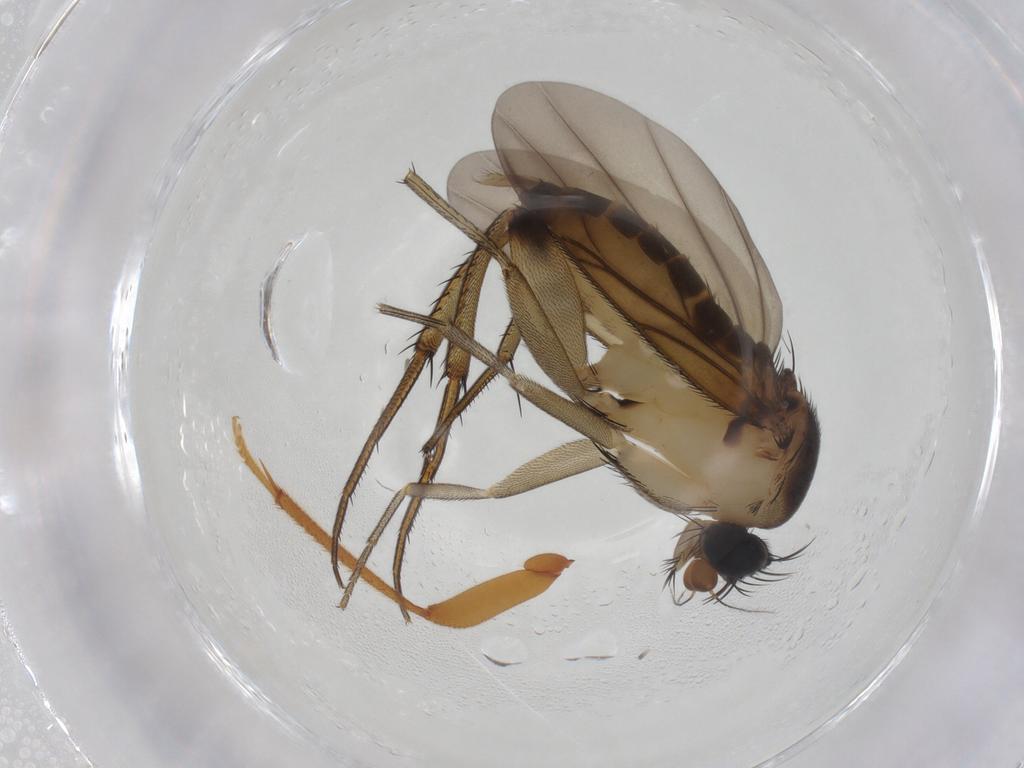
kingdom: Animalia
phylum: Arthropoda
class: Insecta
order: Diptera
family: Phoridae
